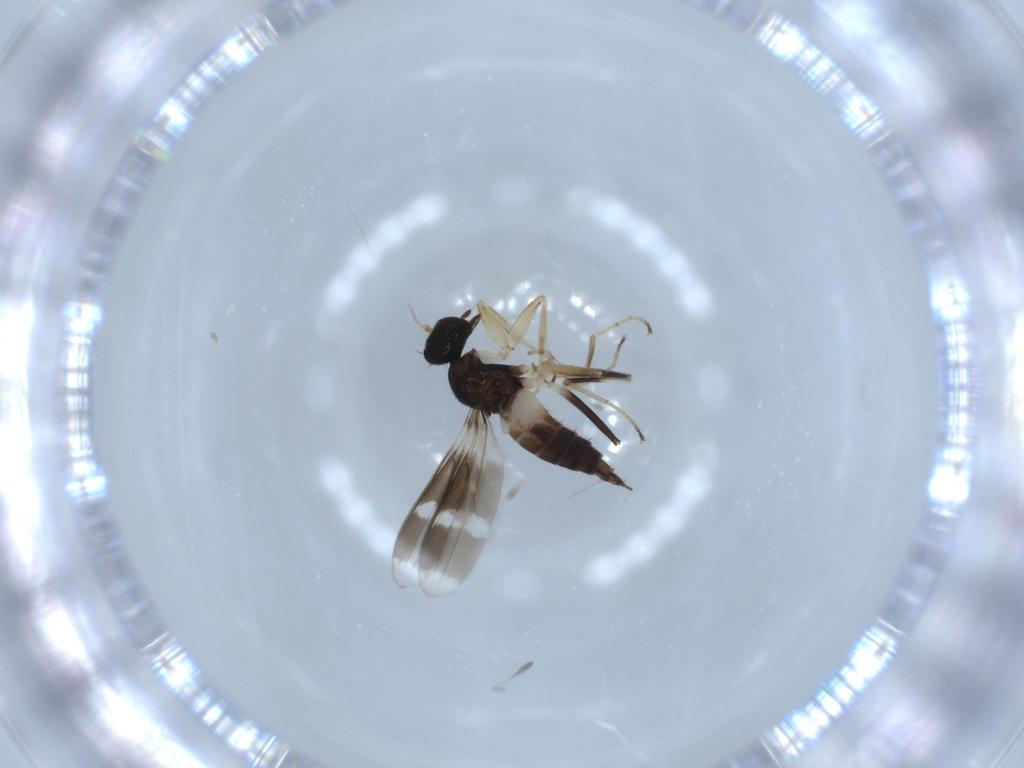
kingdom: Animalia
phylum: Arthropoda
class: Insecta
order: Diptera
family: Hybotidae
